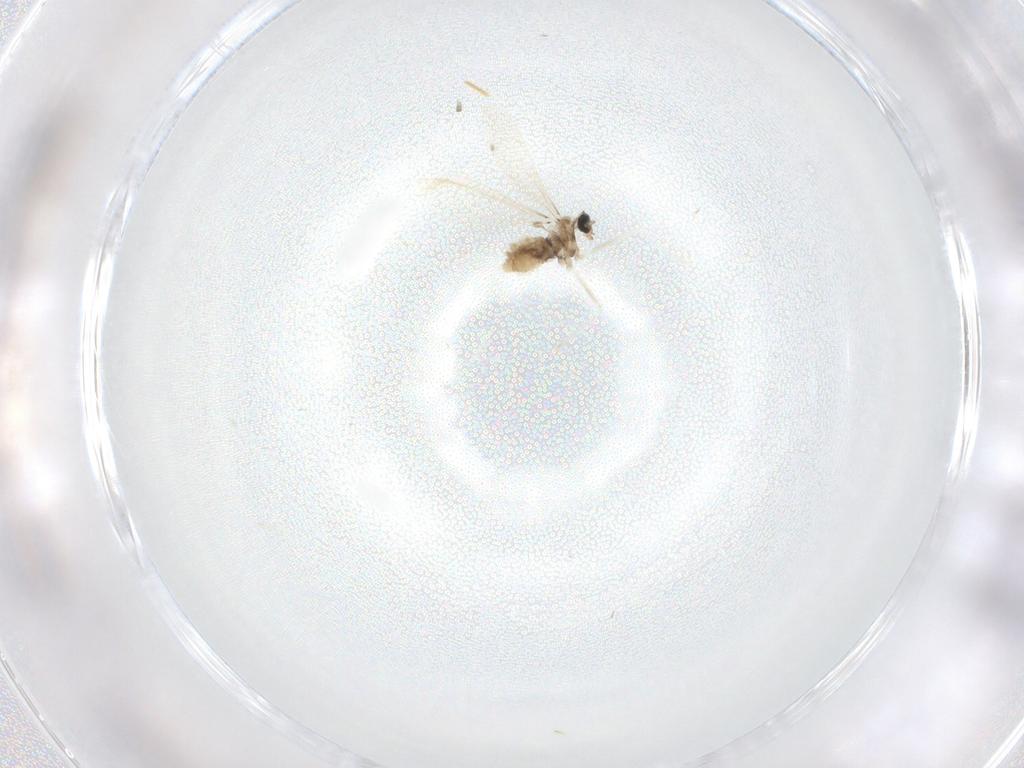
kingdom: Animalia
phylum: Arthropoda
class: Insecta
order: Diptera
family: Cecidomyiidae
